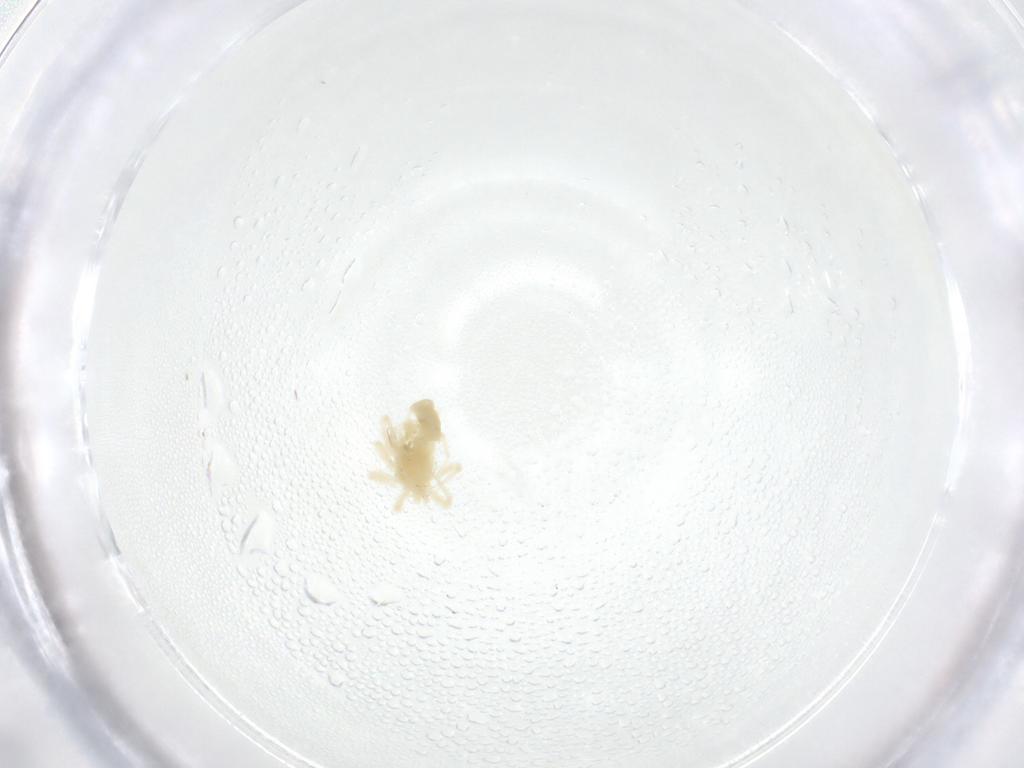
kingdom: Animalia
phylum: Arthropoda
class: Arachnida
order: Trombidiformes
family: Anystidae
